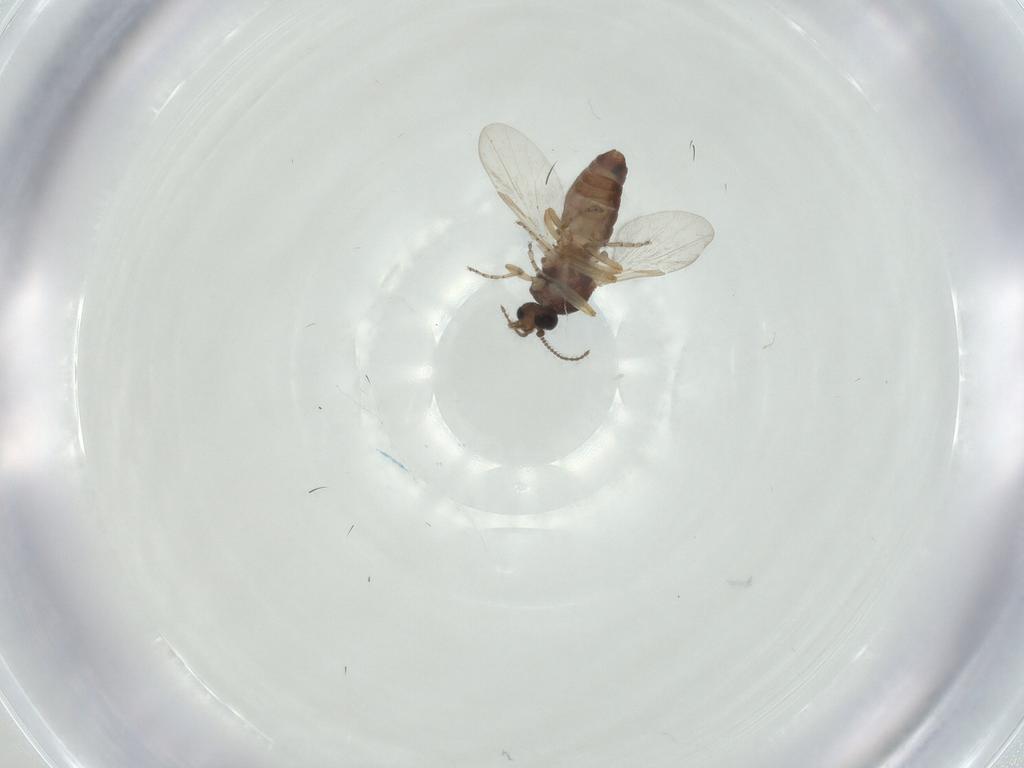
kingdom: Animalia
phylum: Arthropoda
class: Insecta
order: Diptera
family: Ceratopogonidae
